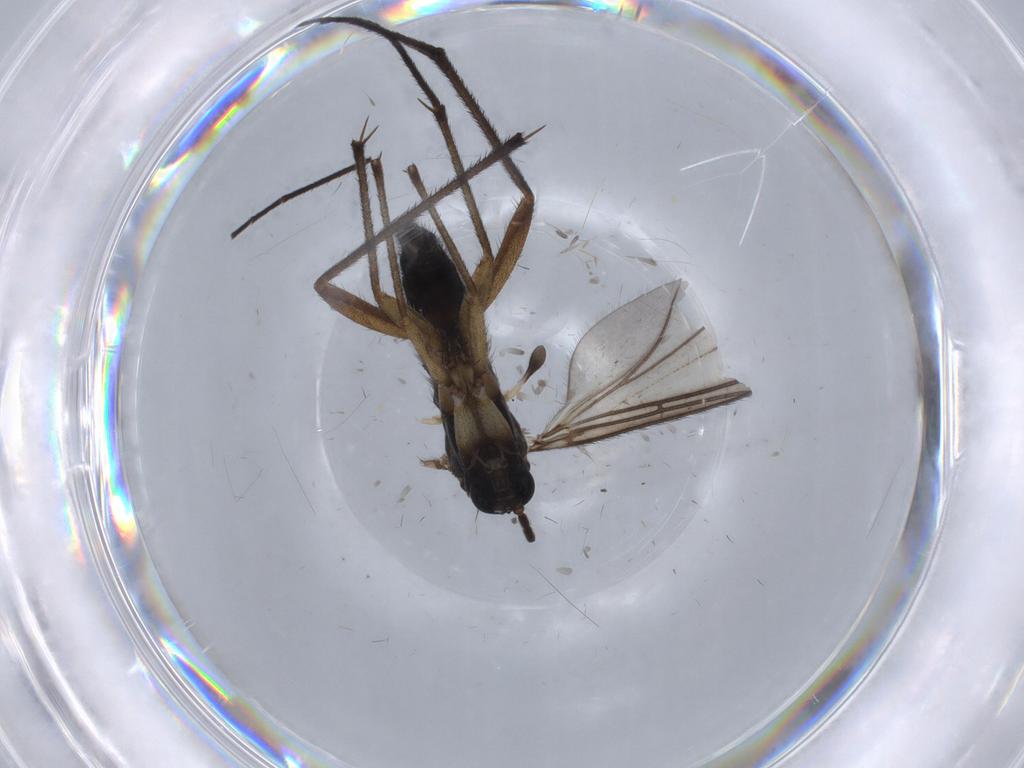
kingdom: Animalia
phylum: Arthropoda
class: Insecta
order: Diptera
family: Sciaridae
